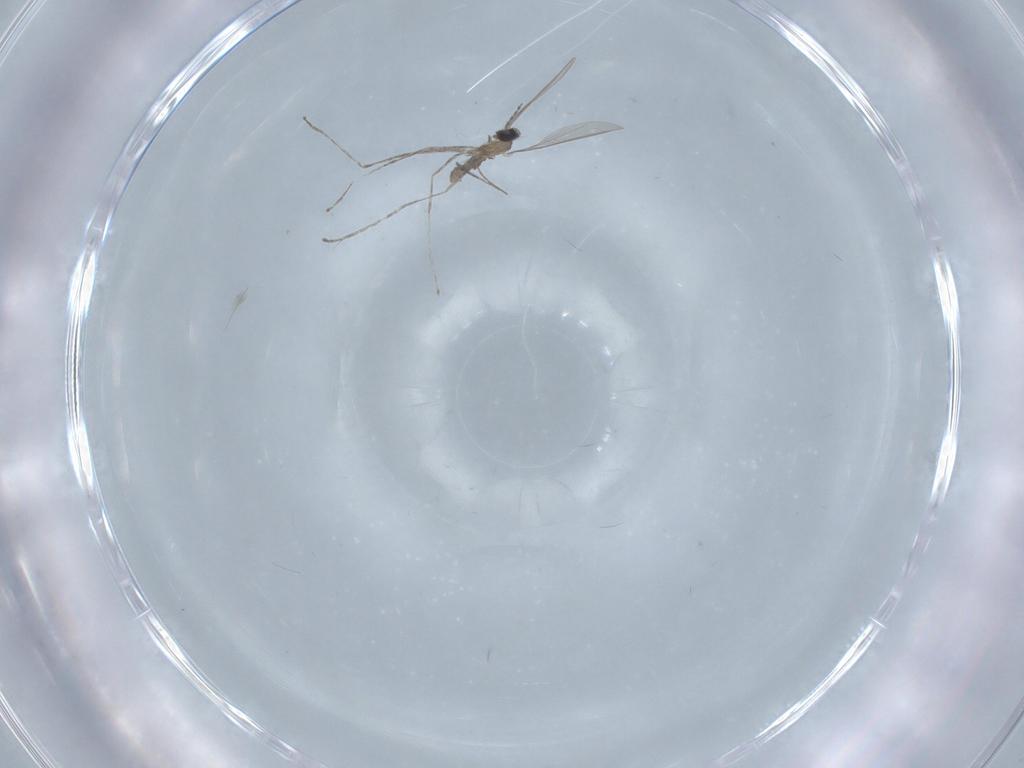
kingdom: Animalia
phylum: Arthropoda
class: Insecta
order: Diptera
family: Cecidomyiidae
